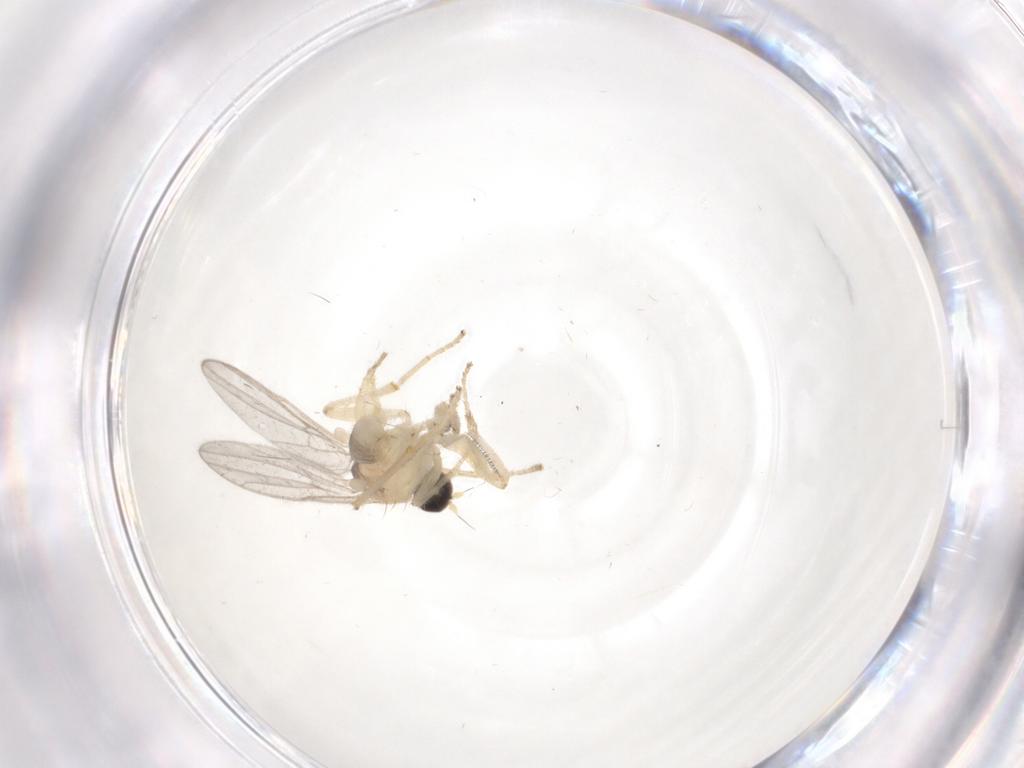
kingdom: Animalia
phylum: Arthropoda
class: Insecta
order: Diptera
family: Hybotidae
